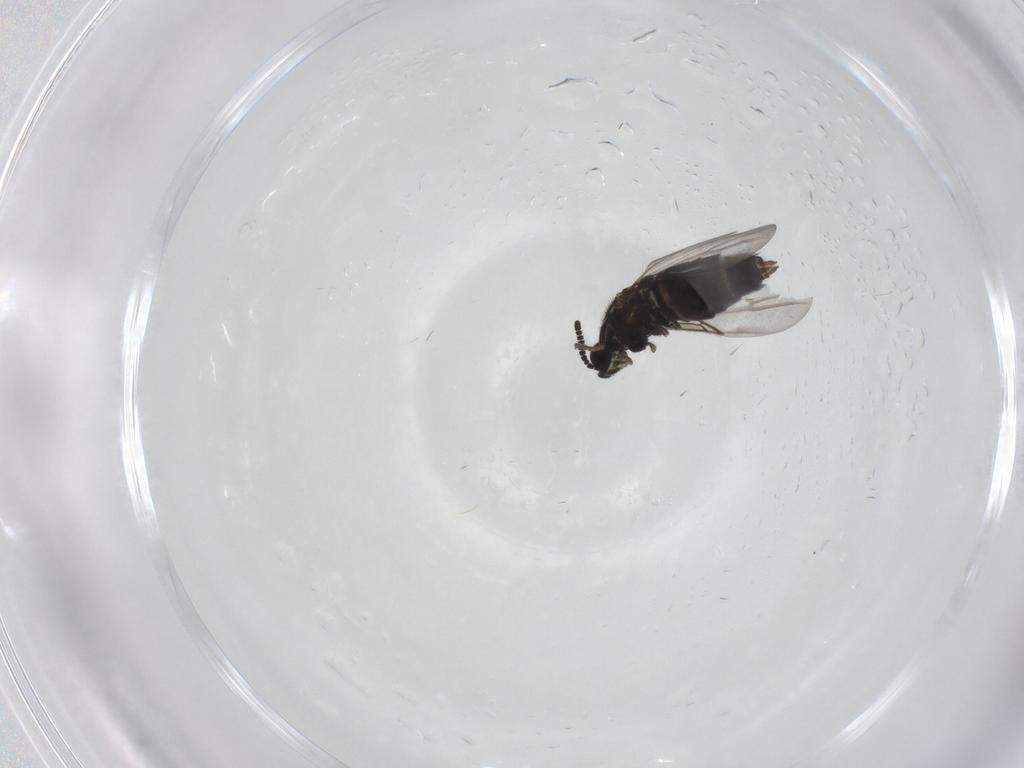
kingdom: Animalia
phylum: Arthropoda
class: Insecta
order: Diptera
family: Scatopsidae
